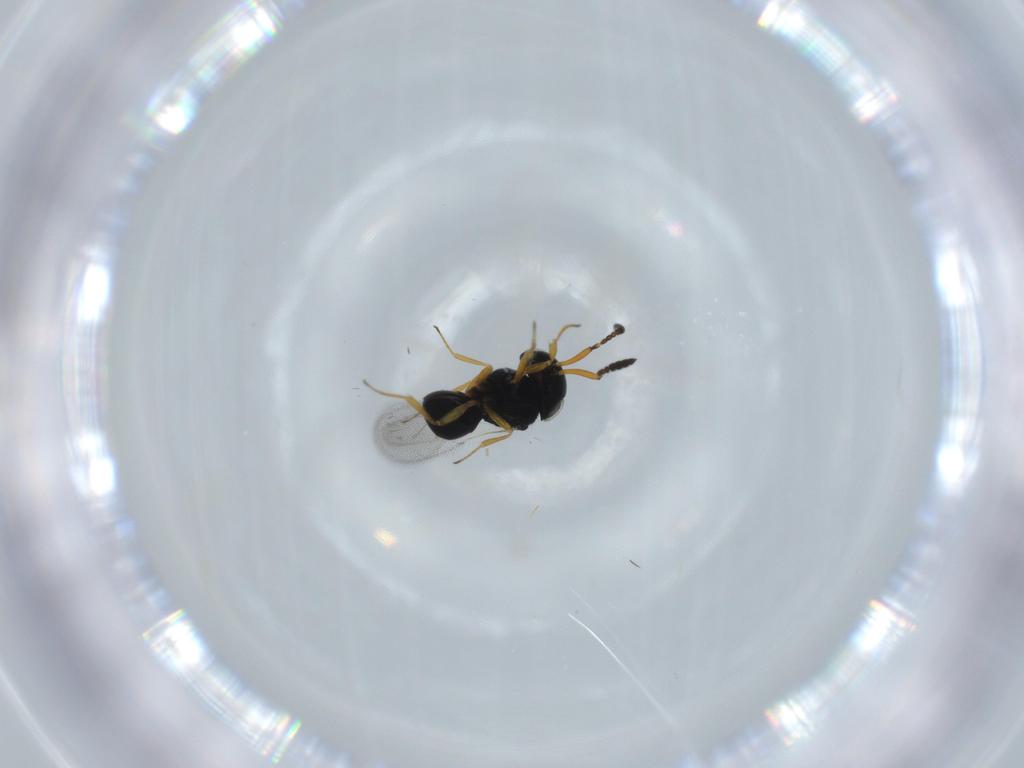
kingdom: Animalia
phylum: Arthropoda
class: Insecta
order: Hymenoptera
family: Scelionidae
